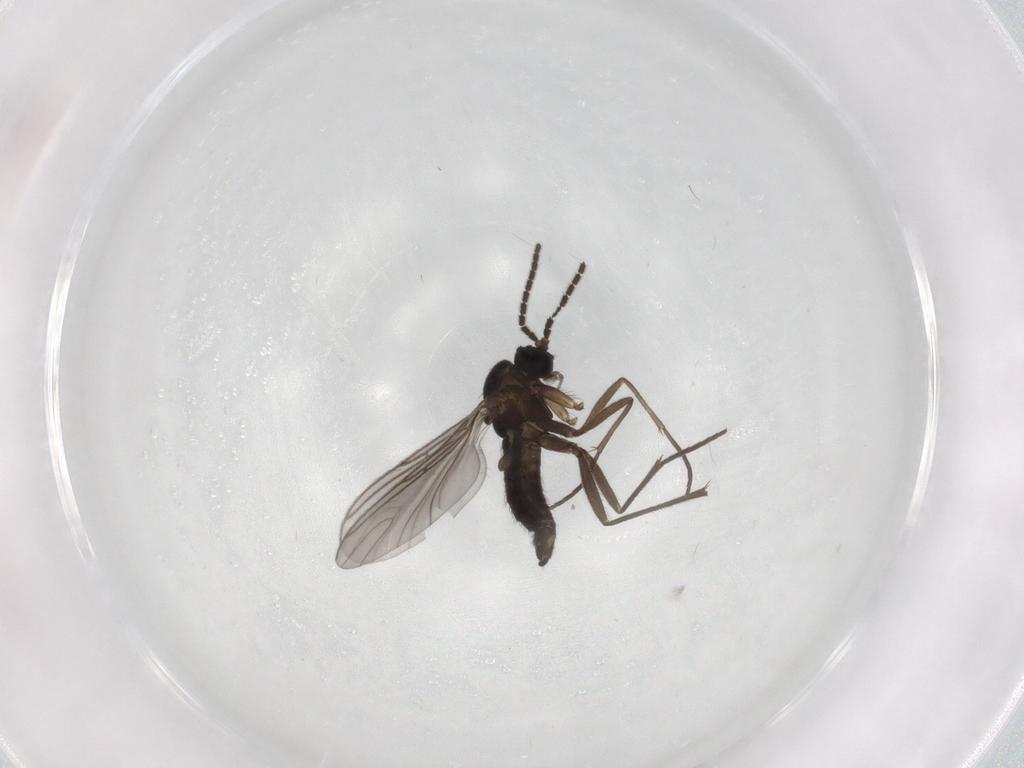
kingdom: Animalia
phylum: Arthropoda
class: Insecta
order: Diptera
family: Sciaridae
